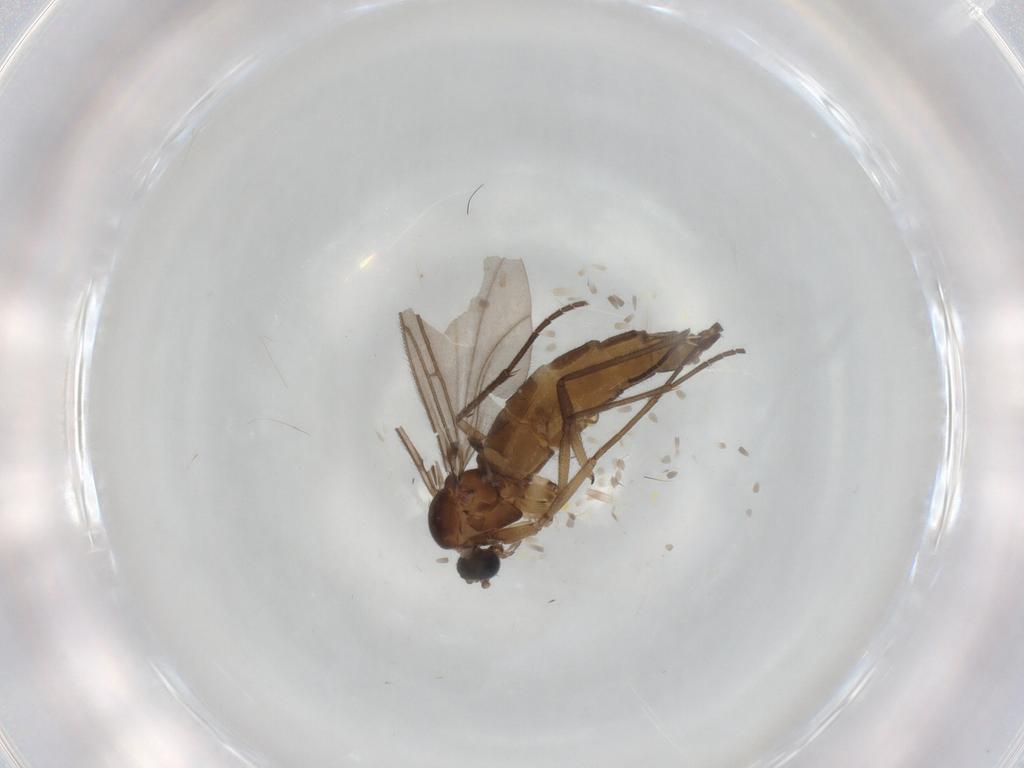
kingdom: Animalia
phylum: Arthropoda
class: Insecta
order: Diptera
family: Sciaridae
